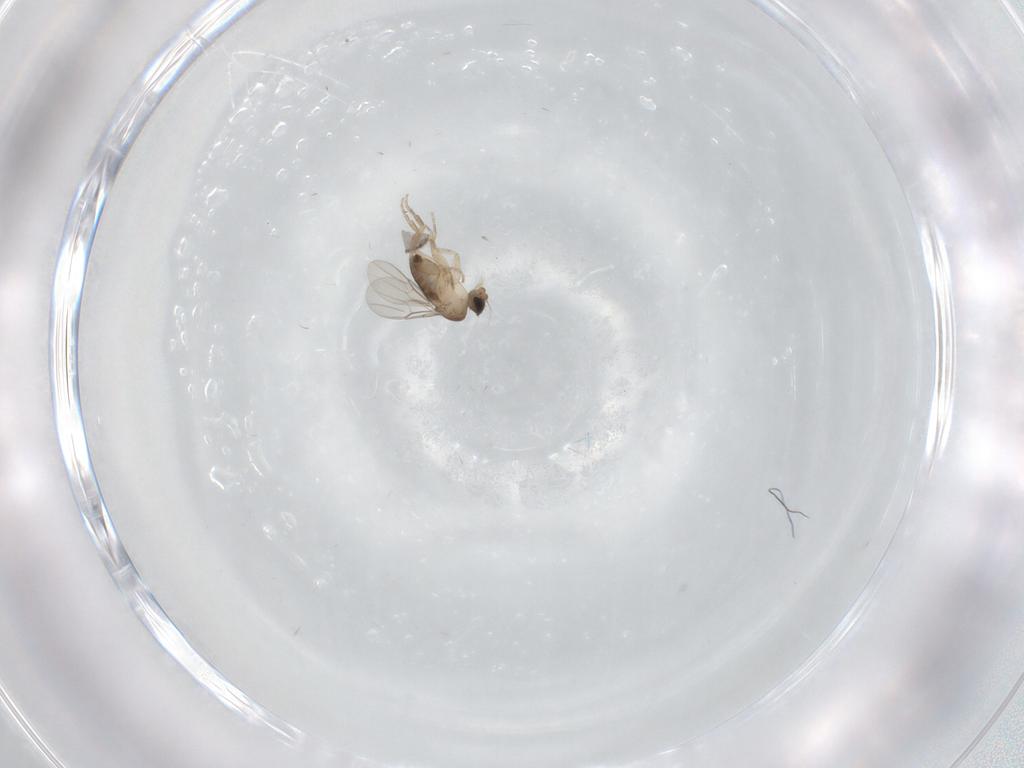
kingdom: Animalia
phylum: Arthropoda
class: Insecta
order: Diptera
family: Phoridae
